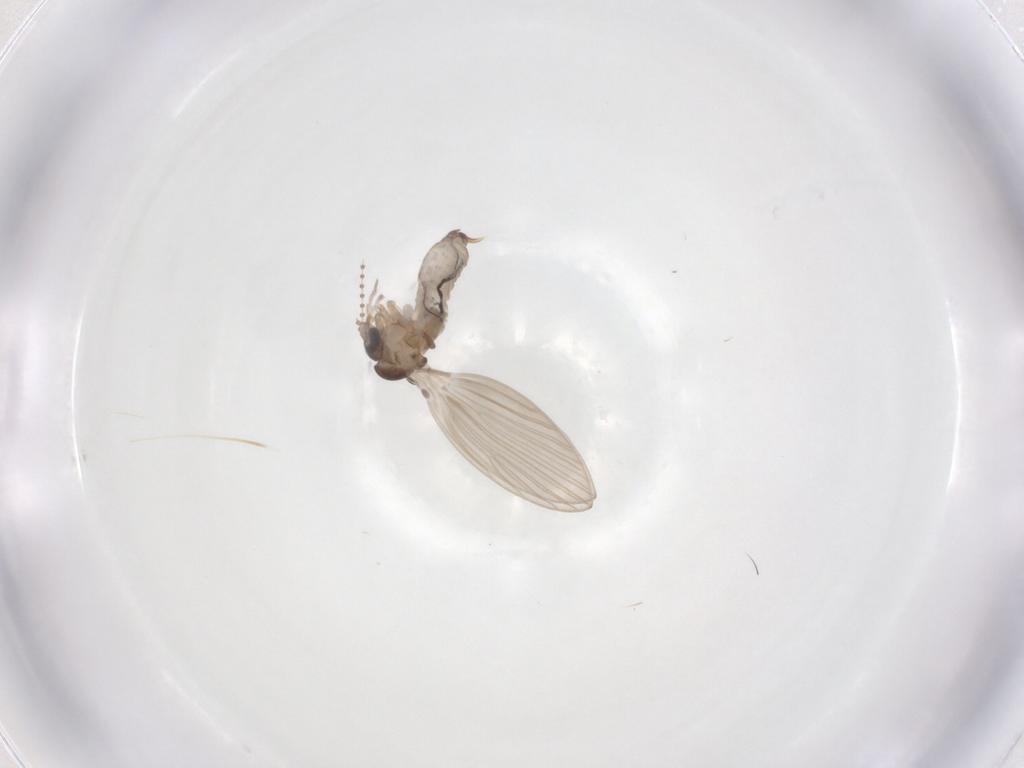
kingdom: Animalia
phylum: Arthropoda
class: Insecta
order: Diptera
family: Psychodidae
